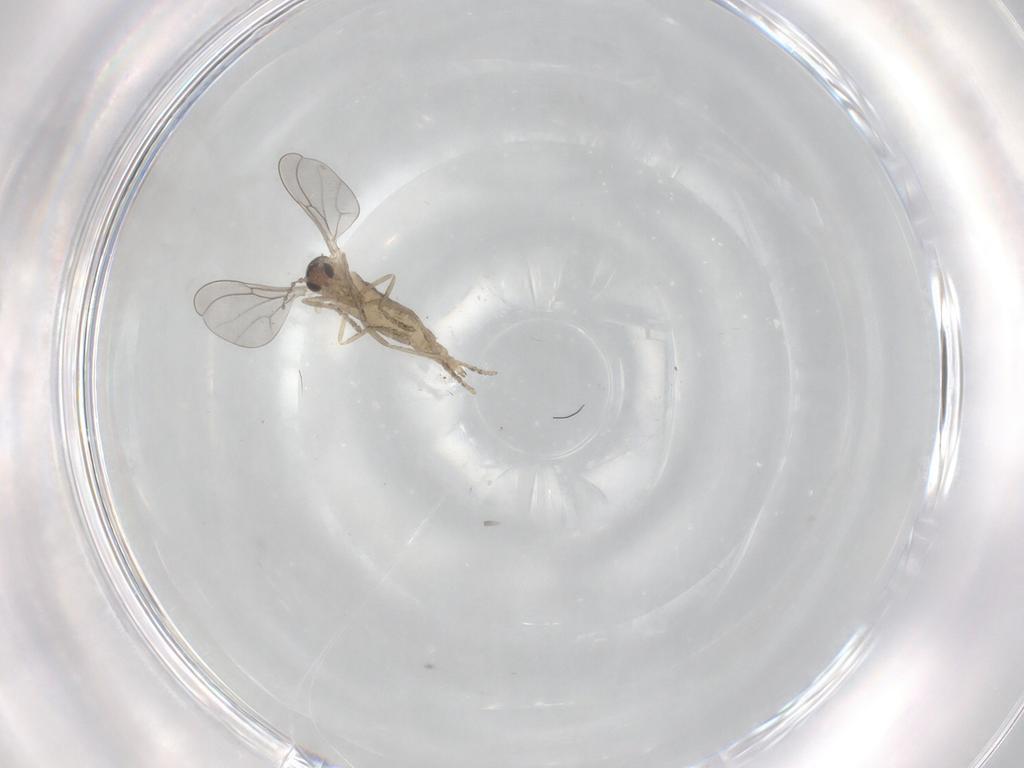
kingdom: Animalia
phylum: Arthropoda
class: Insecta
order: Diptera
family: Cecidomyiidae
